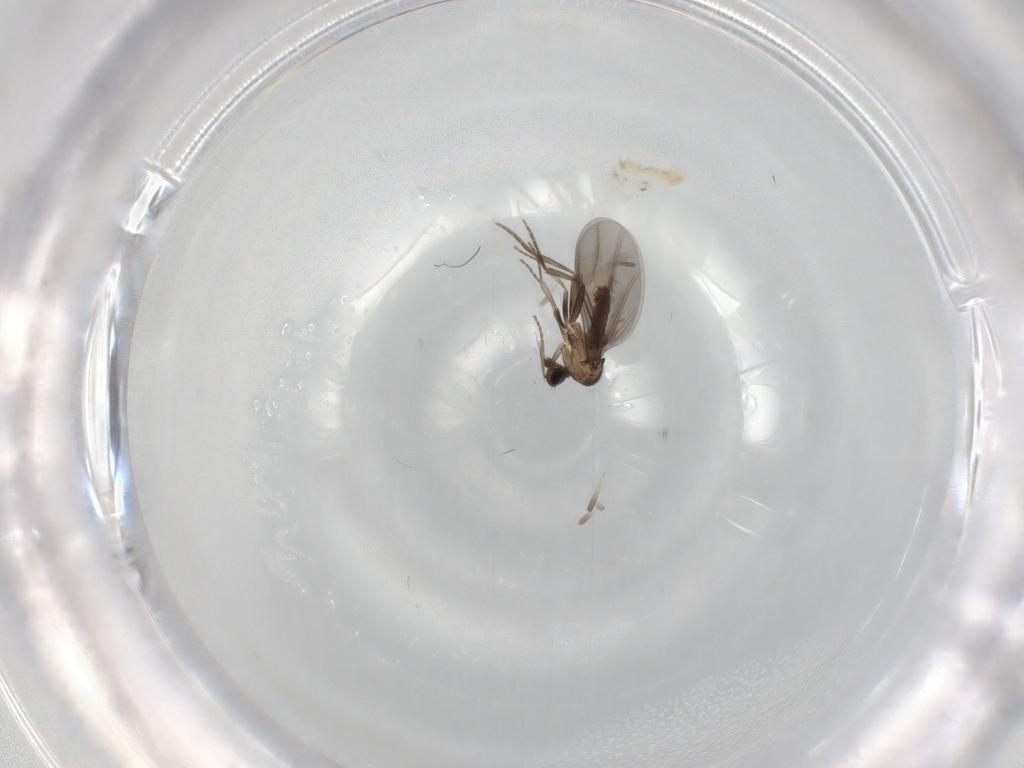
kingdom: Animalia
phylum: Arthropoda
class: Insecta
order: Diptera
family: Phoridae
